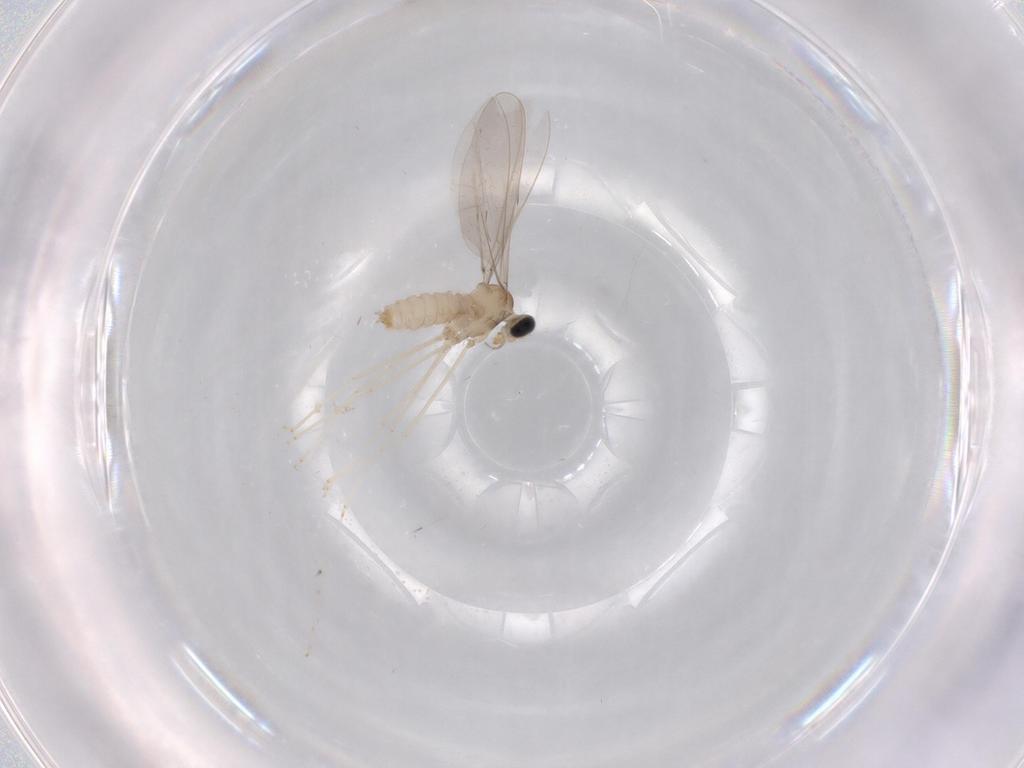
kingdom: Animalia
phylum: Arthropoda
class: Insecta
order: Diptera
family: Cecidomyiidae
